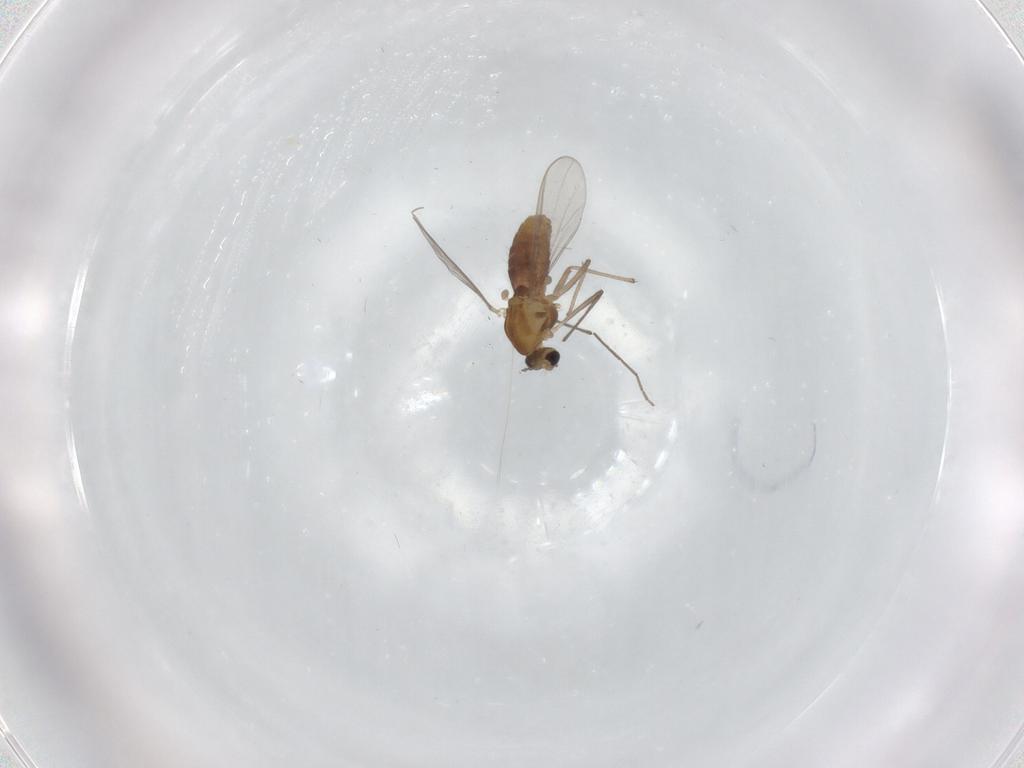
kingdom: Animalia
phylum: Arthropoda
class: Insecta
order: Diptera
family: Chironomidae
